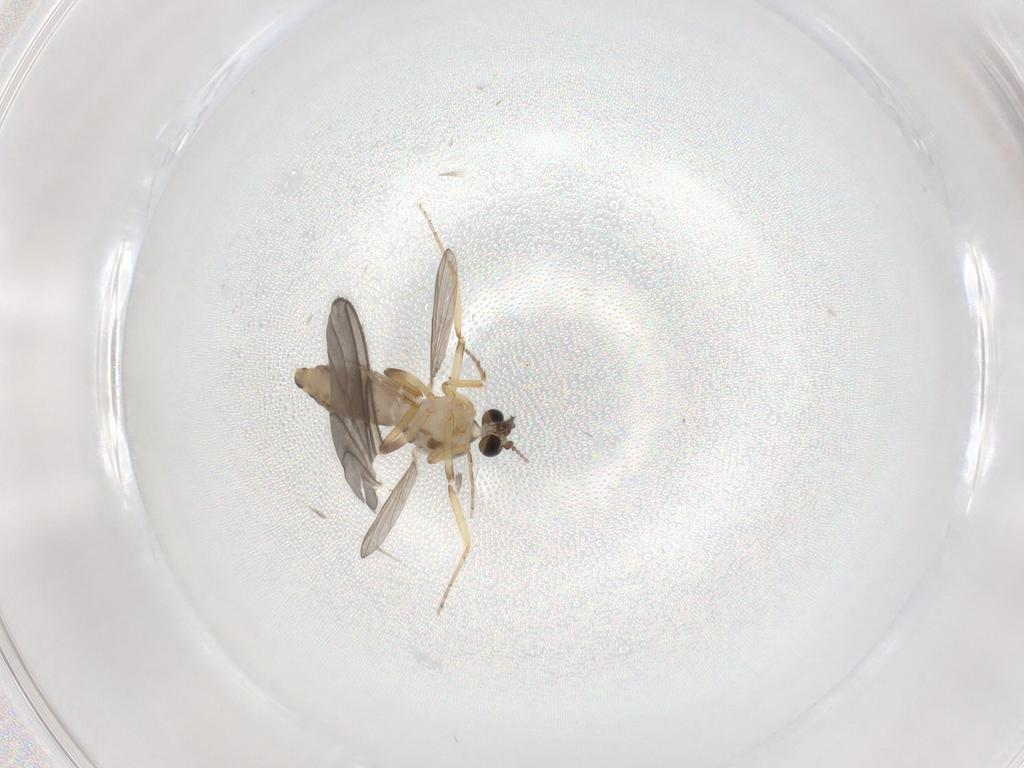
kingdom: Animalia
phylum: Arthropoda
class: Insecta
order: Diptera
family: Cecidomyiidae
